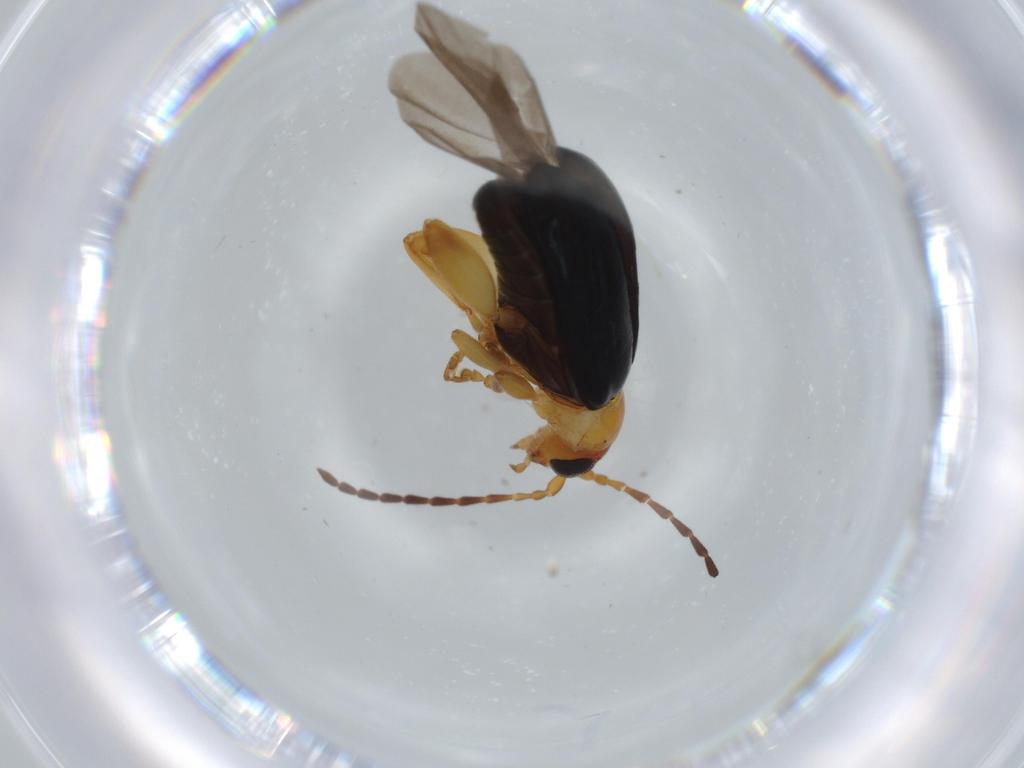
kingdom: Animalia
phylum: Arthropoda
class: Insecta
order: Coleoptera
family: Chrysomelidae
